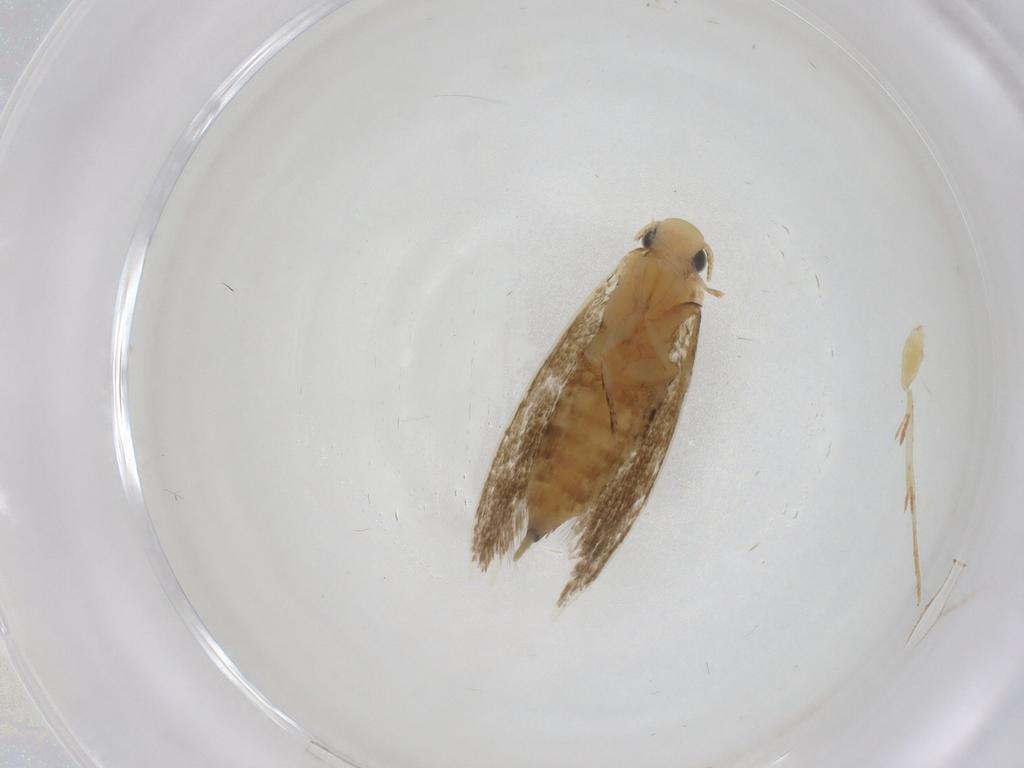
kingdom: Animalia
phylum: Arthropoda
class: Insecta
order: Lepidoptera
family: Tineidae
